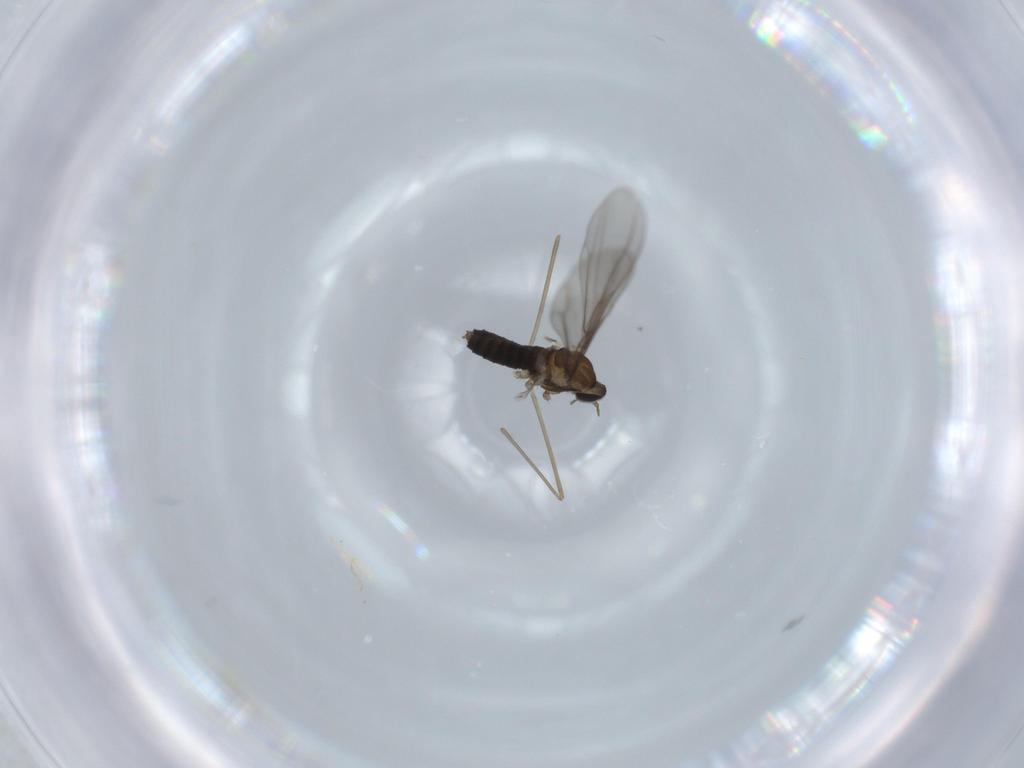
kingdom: Animalia
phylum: Arthropoda
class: Insecta
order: Diptera
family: Cecidomyiidae
